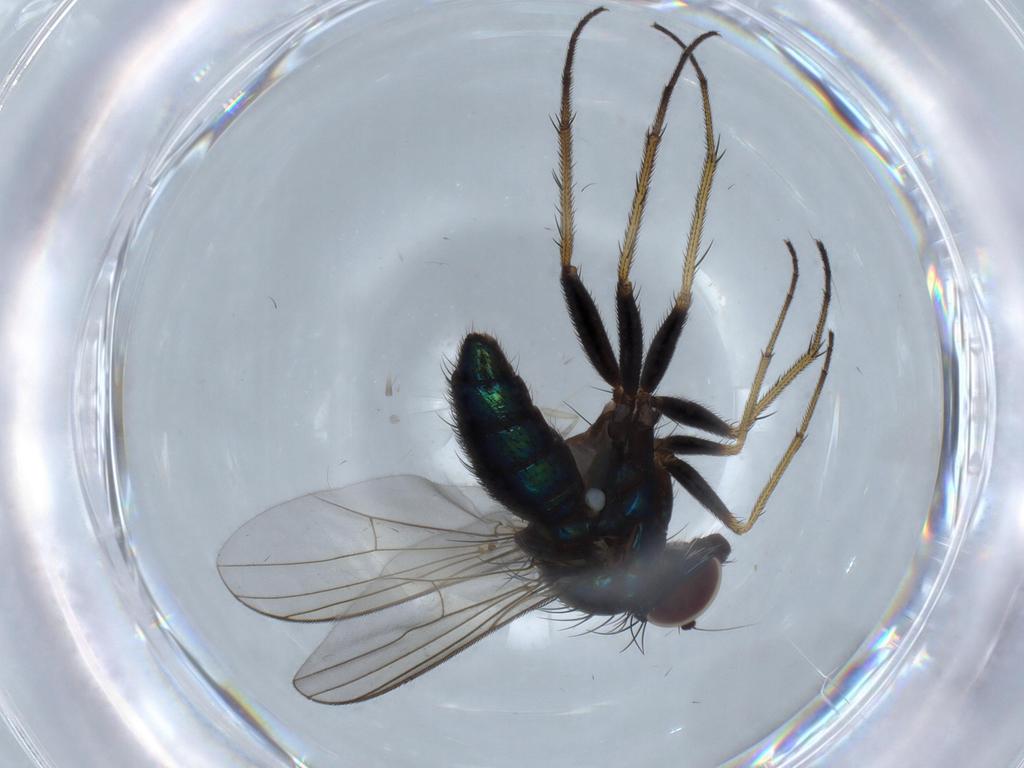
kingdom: Animalia
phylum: Arthropoda
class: Insecta
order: Diptera
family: Dolichopodidae
